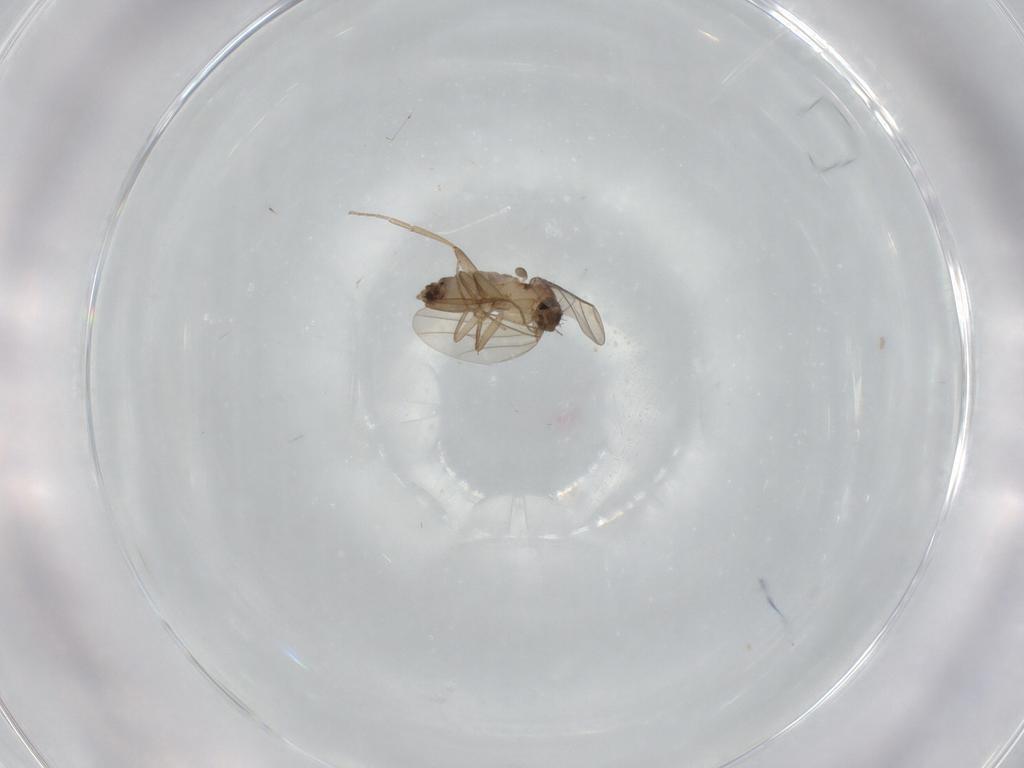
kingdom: Animalia
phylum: Arthropoda
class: Insecta
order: Diptera
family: Phoridae
